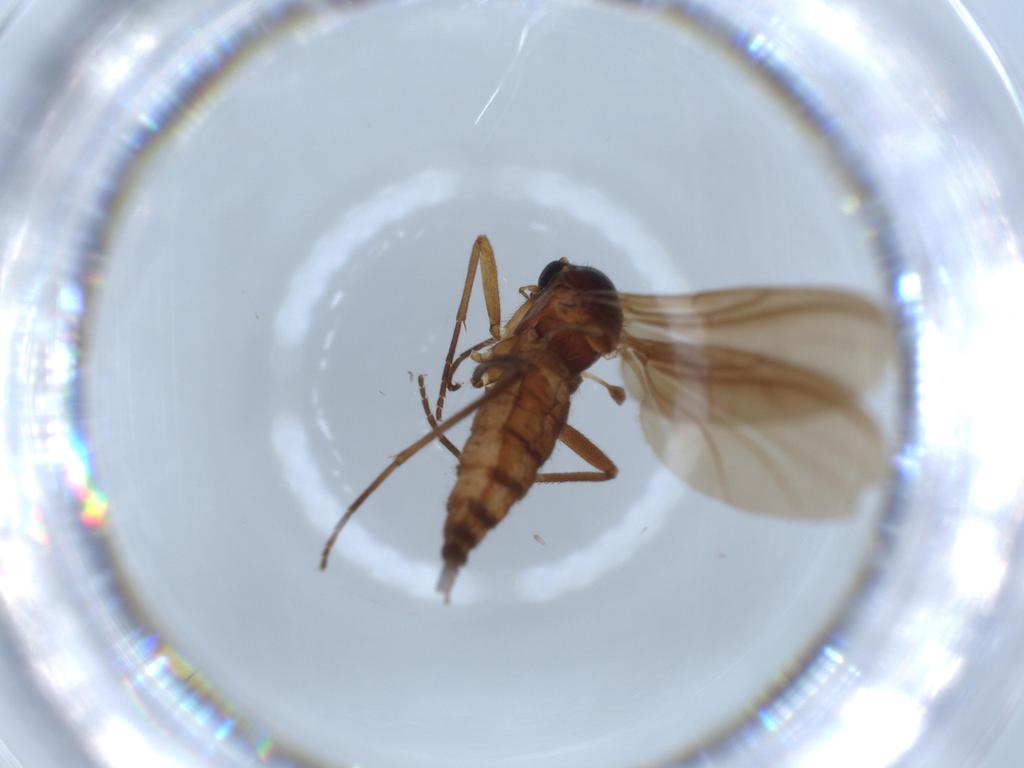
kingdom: Animalia
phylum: Arthropoda
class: Insecta
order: Diptera
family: Sciaridae
